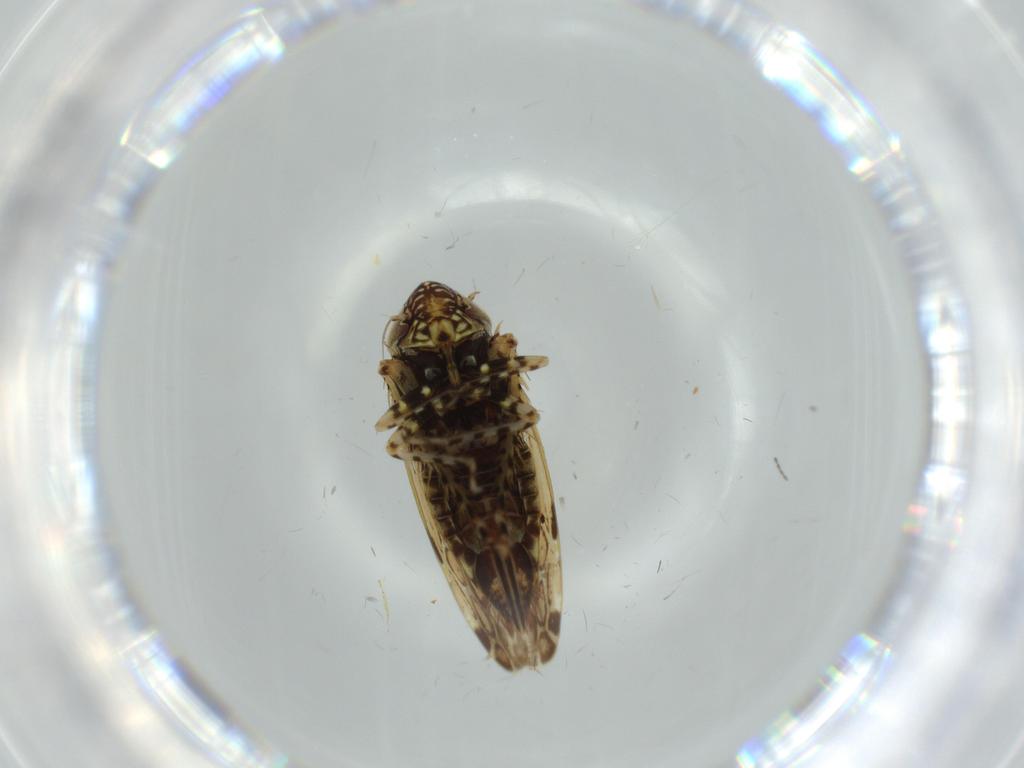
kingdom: Animalia
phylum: Arthropoda
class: Insecta
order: Hemiptera
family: Cicadellidae
